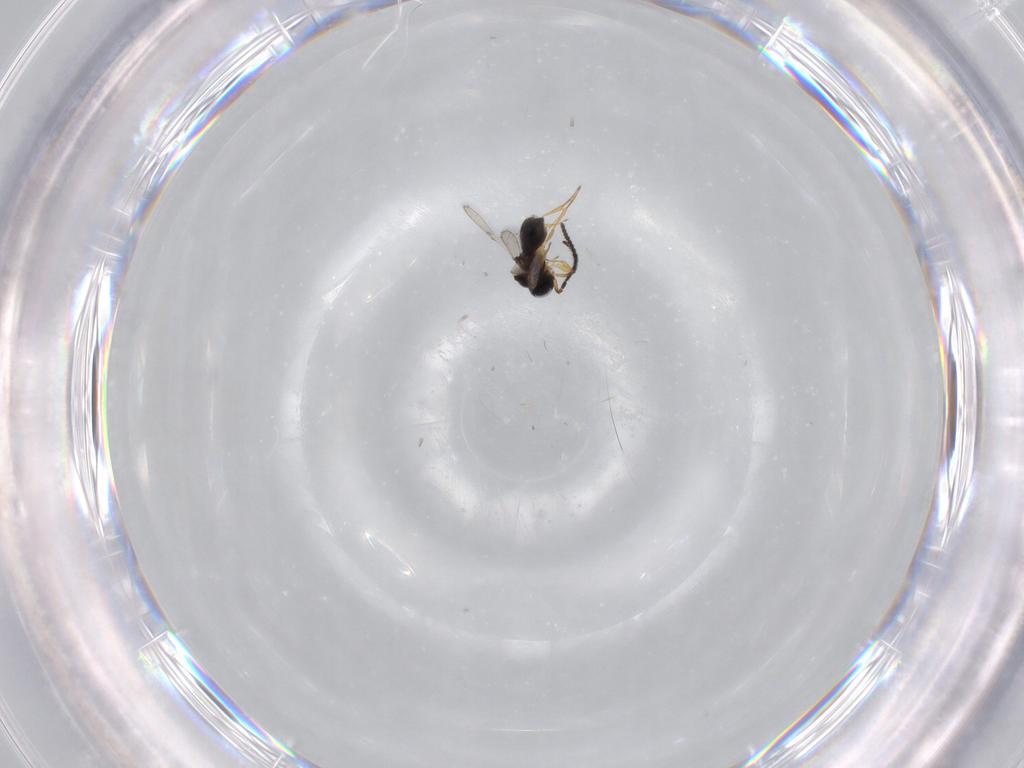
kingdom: Animalia
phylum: Arthropoda
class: Insecta
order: Hymenoptera
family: Scelionidae
